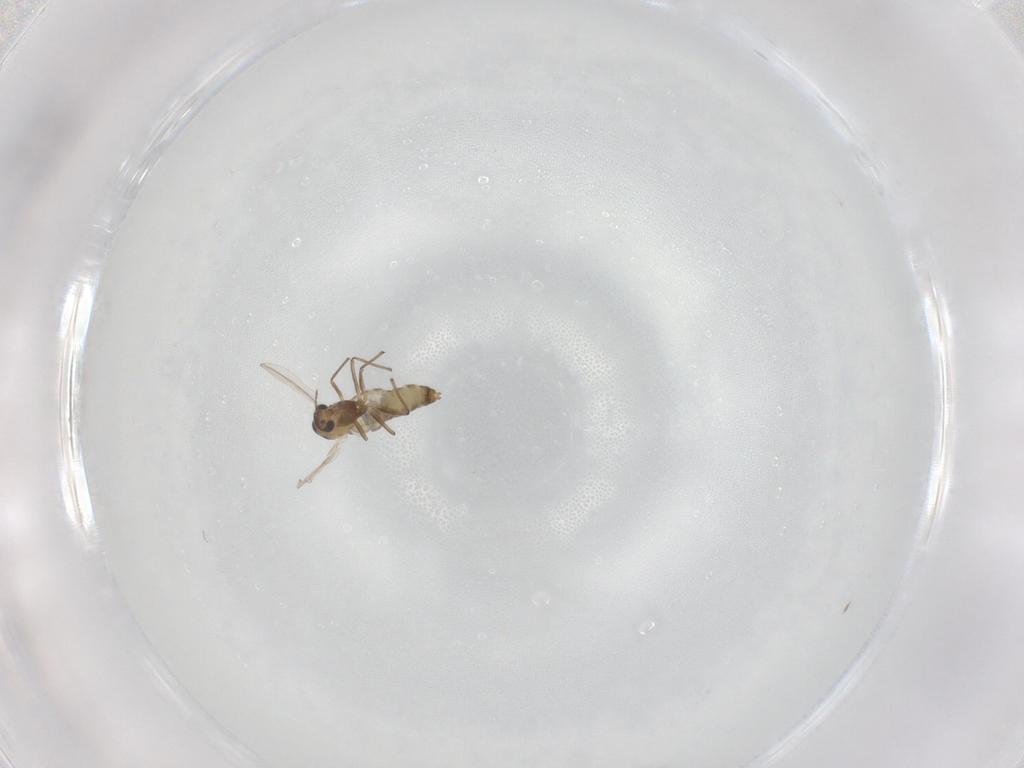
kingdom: Animalia
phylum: Arthropoda
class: Insecta
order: Diptera
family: Chironomidae
